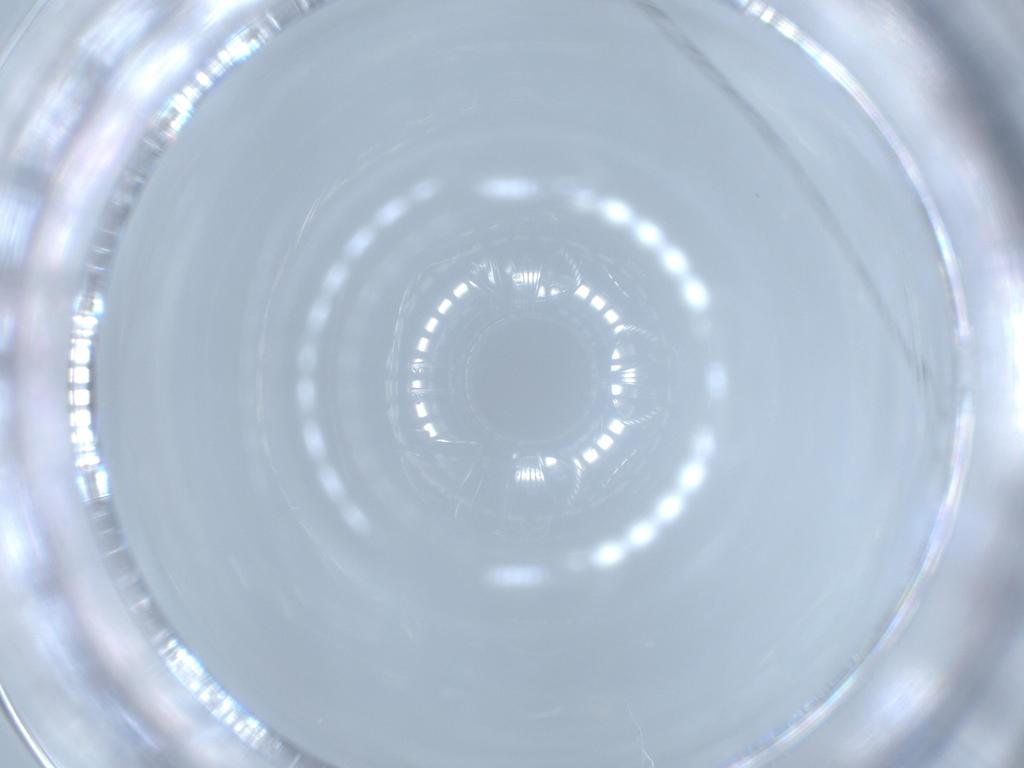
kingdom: Animalia
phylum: Arthropoda
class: Insecta
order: Hymenoptera
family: Formicidae
